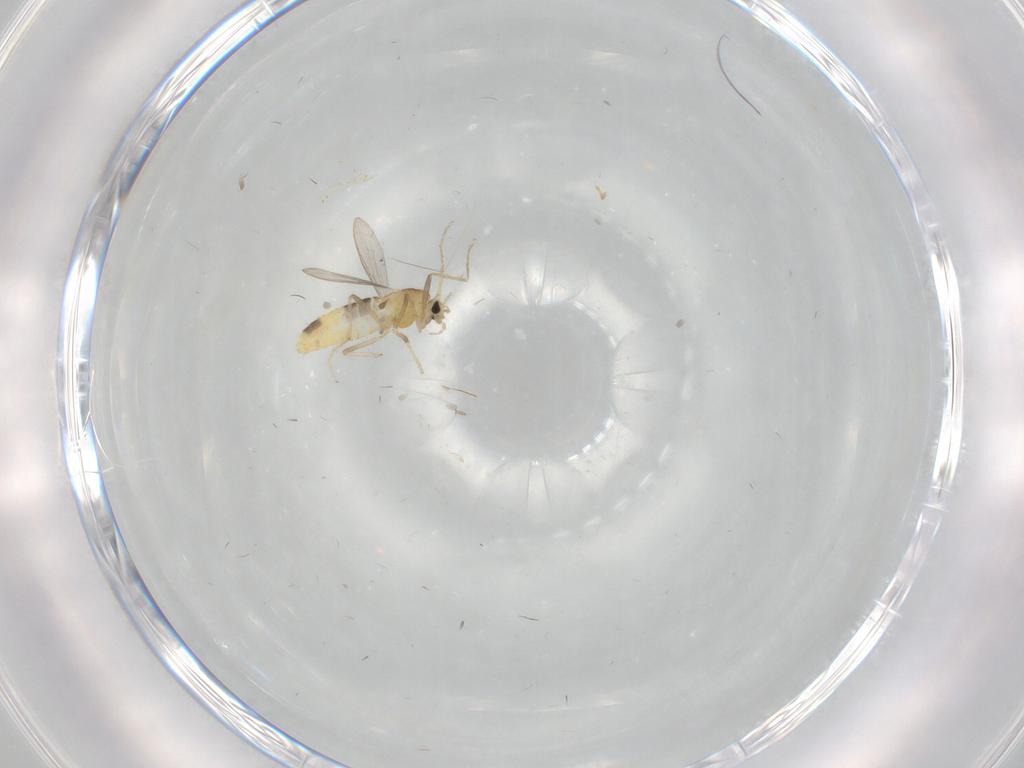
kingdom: Animalia
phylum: Arthropoda
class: Insecta
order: Diptera
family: Chironomidae
